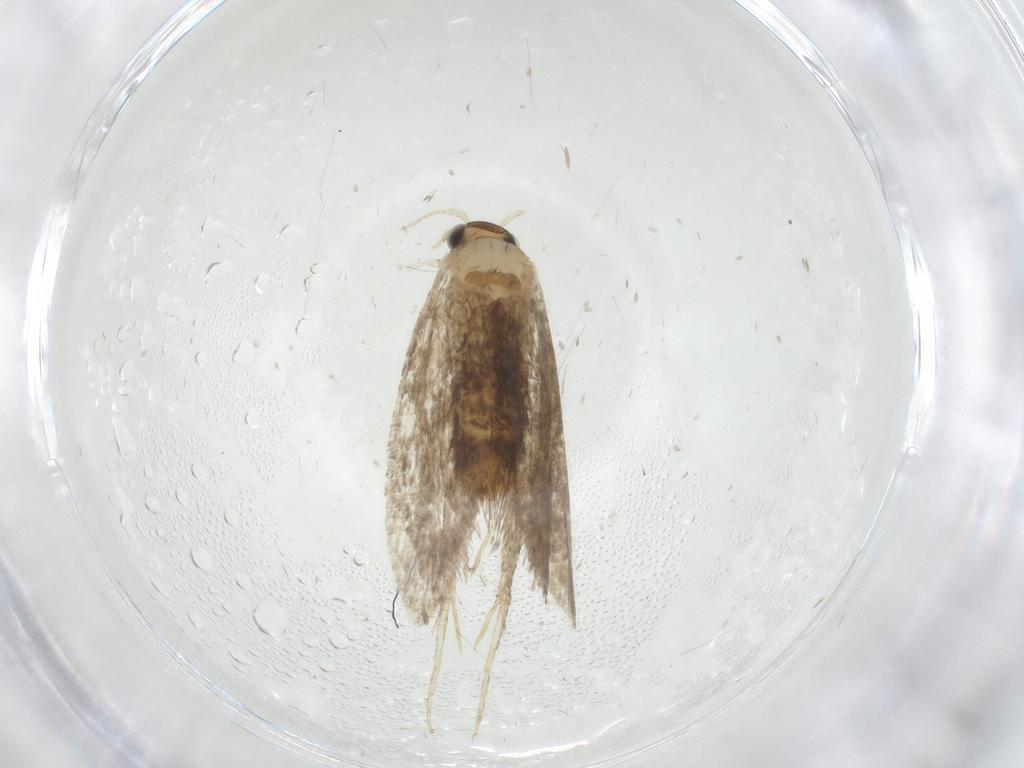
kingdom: Animalia
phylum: Arthropoda
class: Insecta
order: Lepidoptera
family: Tineidae
